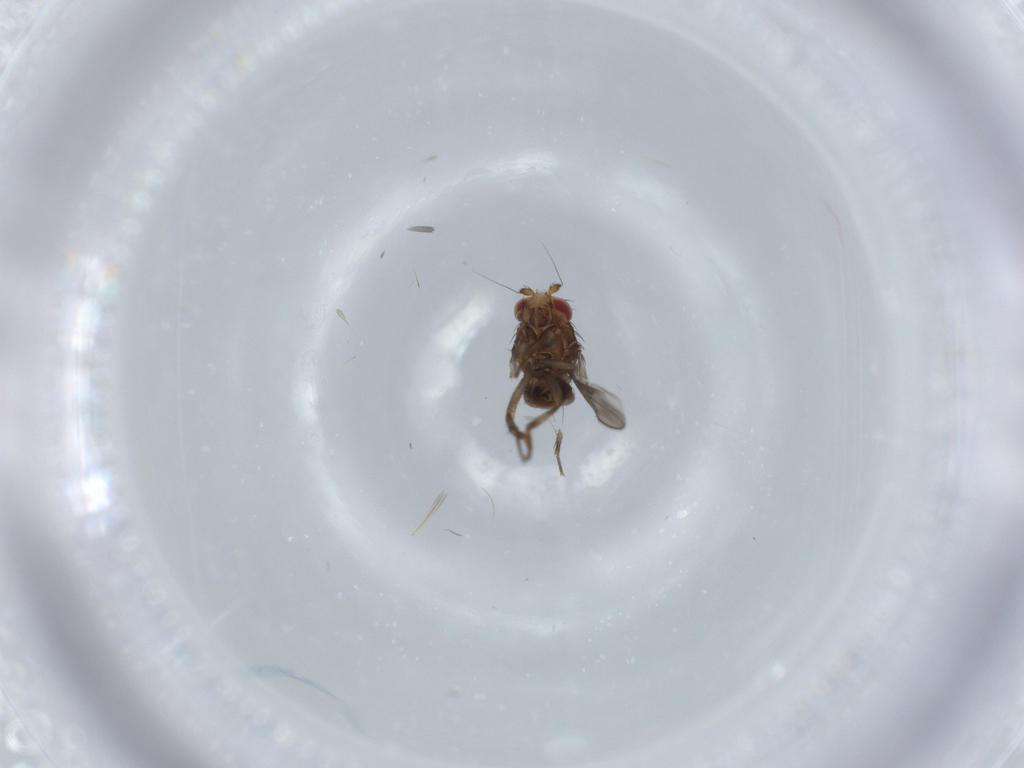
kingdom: Animalia
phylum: Arthropoda
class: Insecta
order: Diptera
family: Sphaeroceridae
